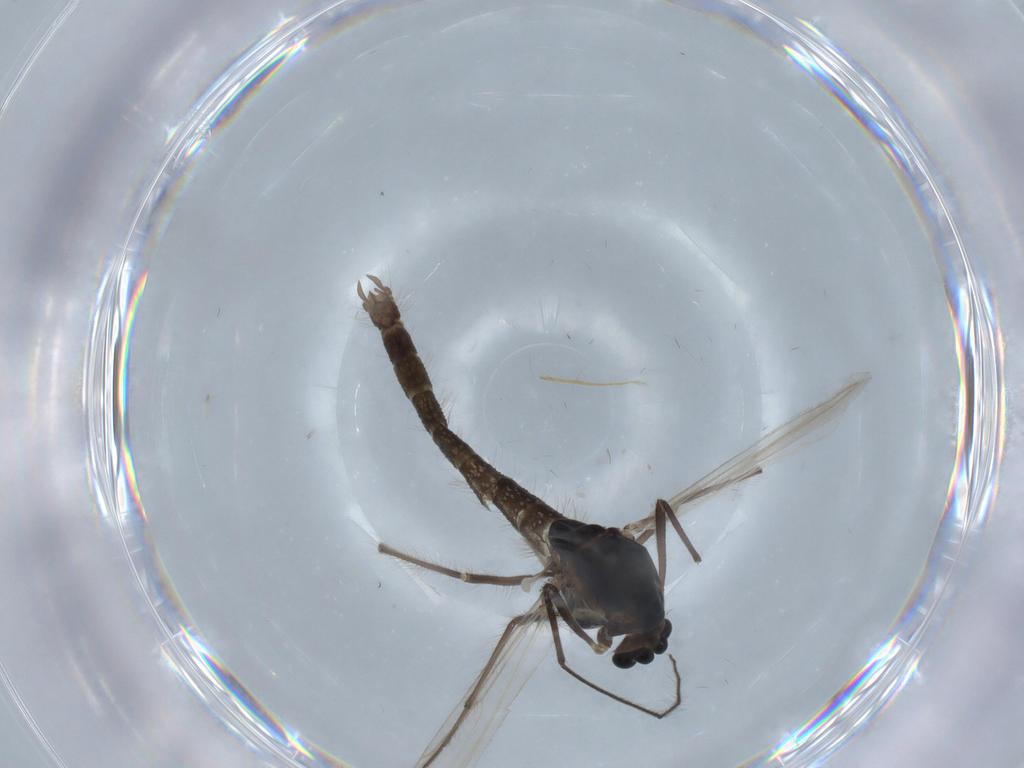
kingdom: Animalia
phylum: Arthropoda
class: Insecta
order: Diptera
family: Chironomidae
